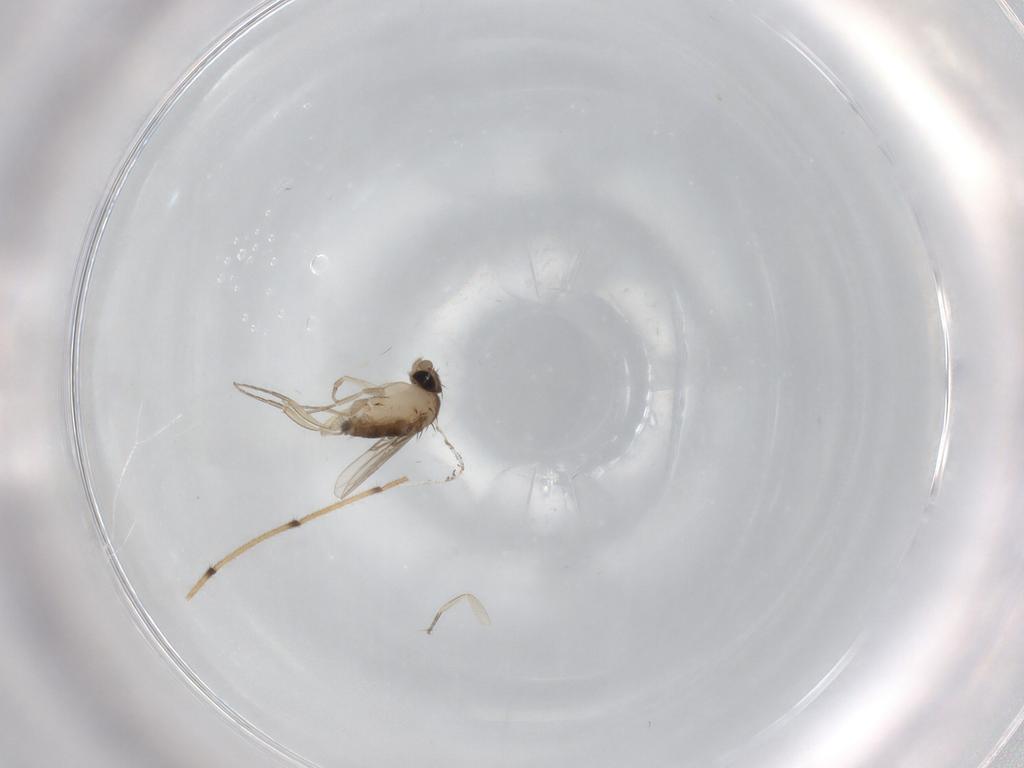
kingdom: Animalia
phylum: Arthropoda
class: Insecta
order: Diptera
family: Phoridae
